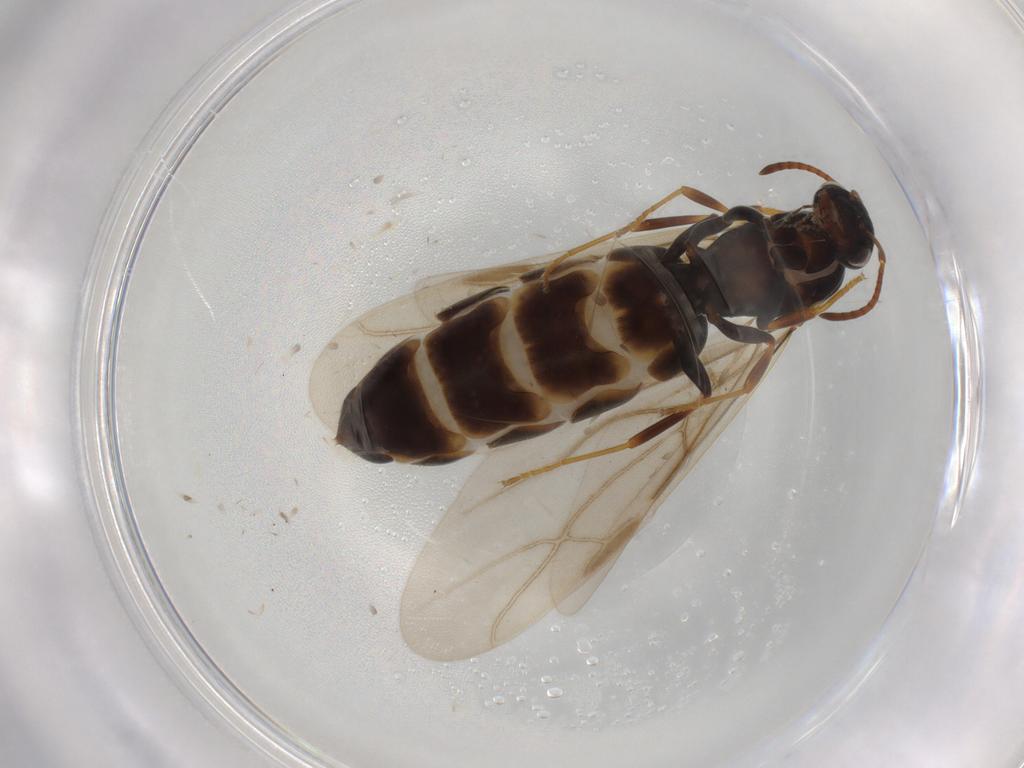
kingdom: Animalia
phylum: Arthropoda
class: Insecta
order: Hymenoptera
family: Formicidae
